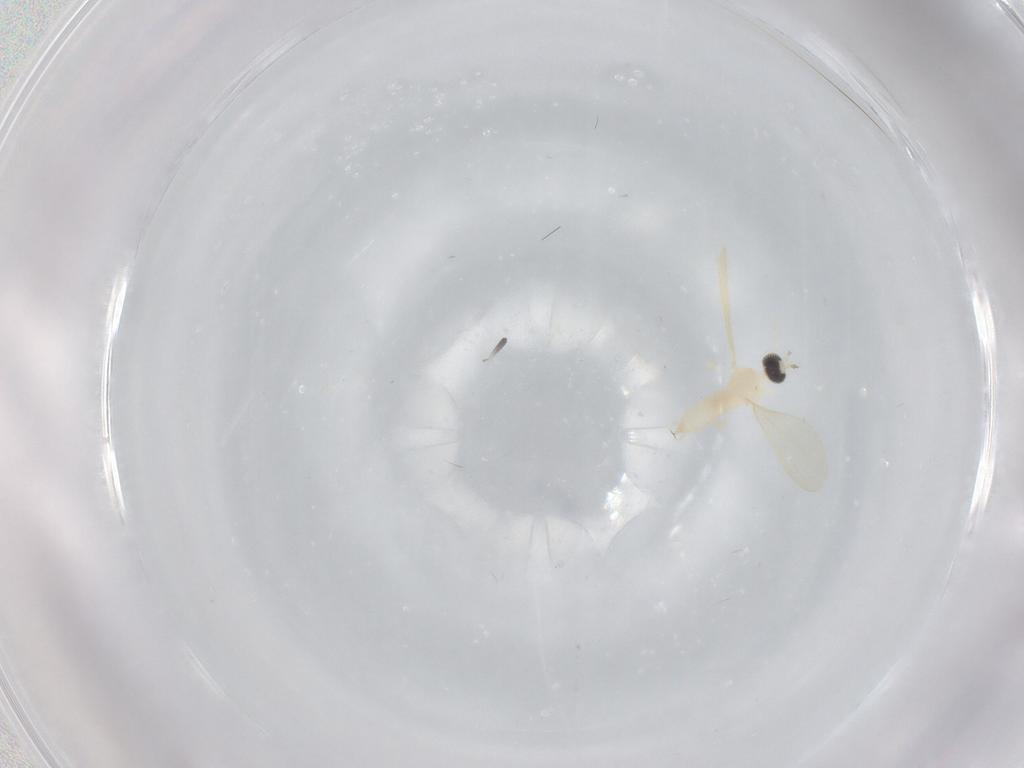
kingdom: Animalia
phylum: Arthropoda
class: Insecta
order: Diptera
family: Cecidomyiidae
